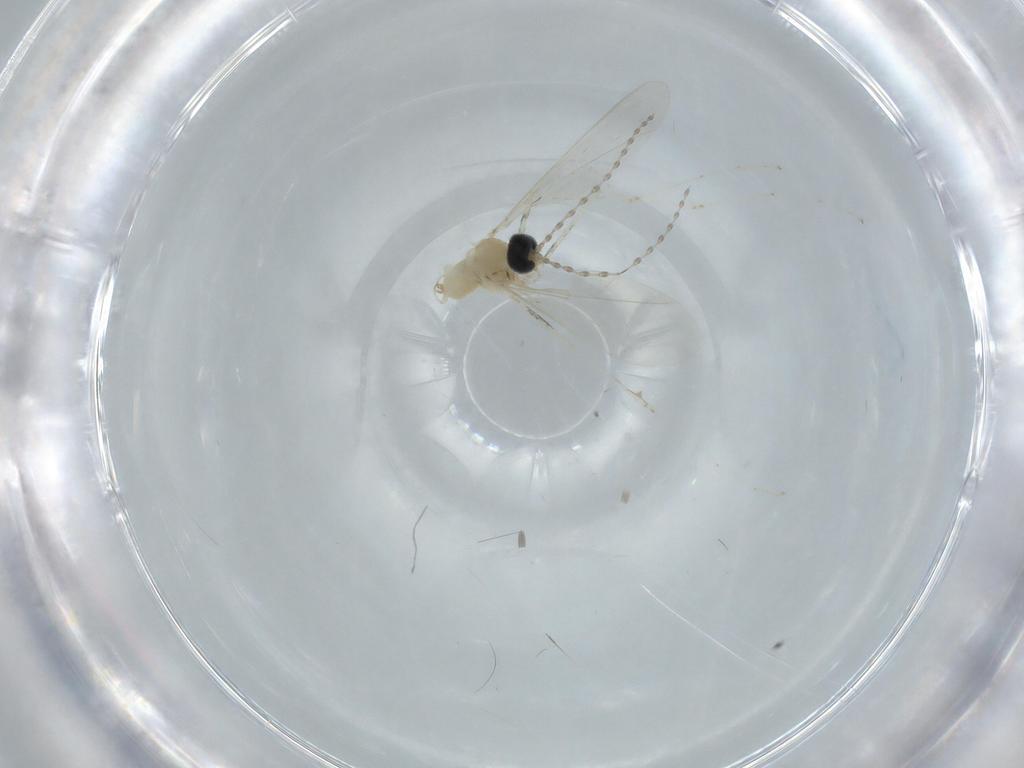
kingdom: Animalia
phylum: Arthropoda
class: Insecta
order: Diptera
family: Cecidomyiidae
